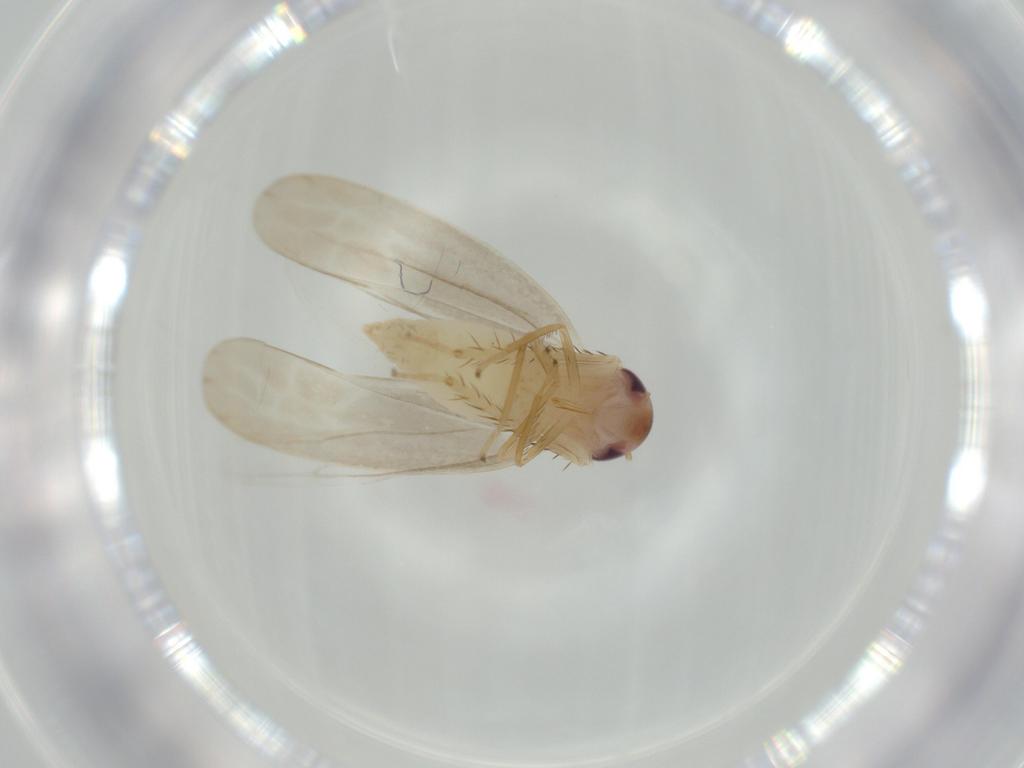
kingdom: Animalia
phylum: Arthropoda
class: Insecta
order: Hemiptera
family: Cicadellidae
